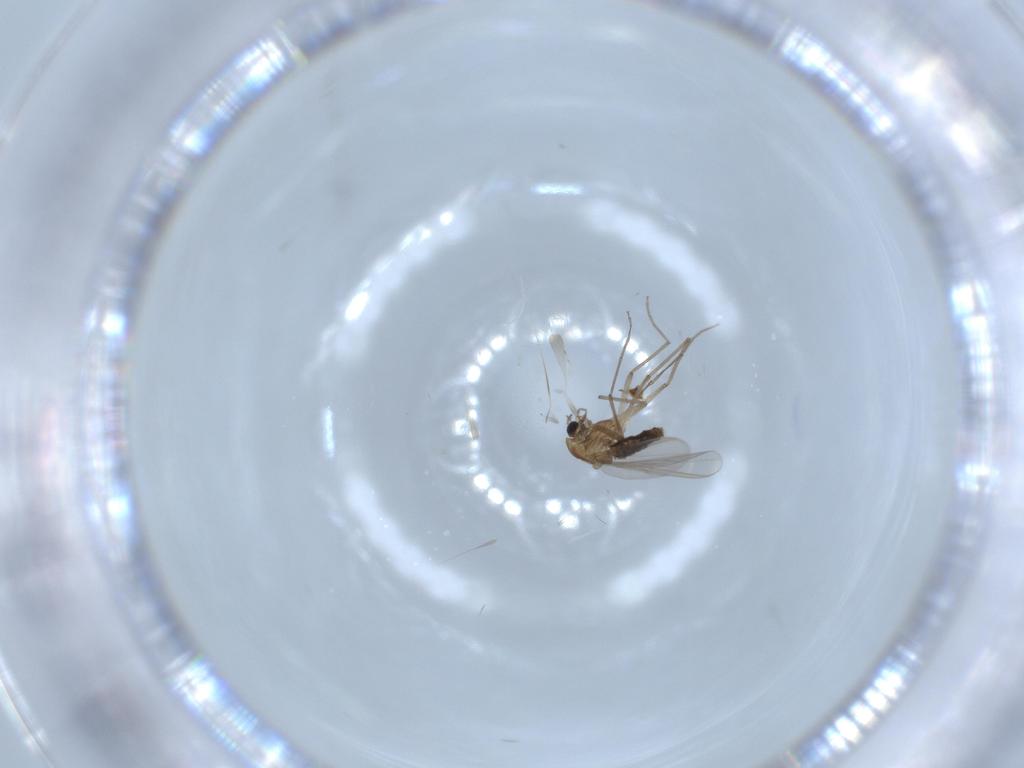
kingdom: Animalia
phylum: Arthropoda
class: Insecta
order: Diptera
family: Chironomidae
